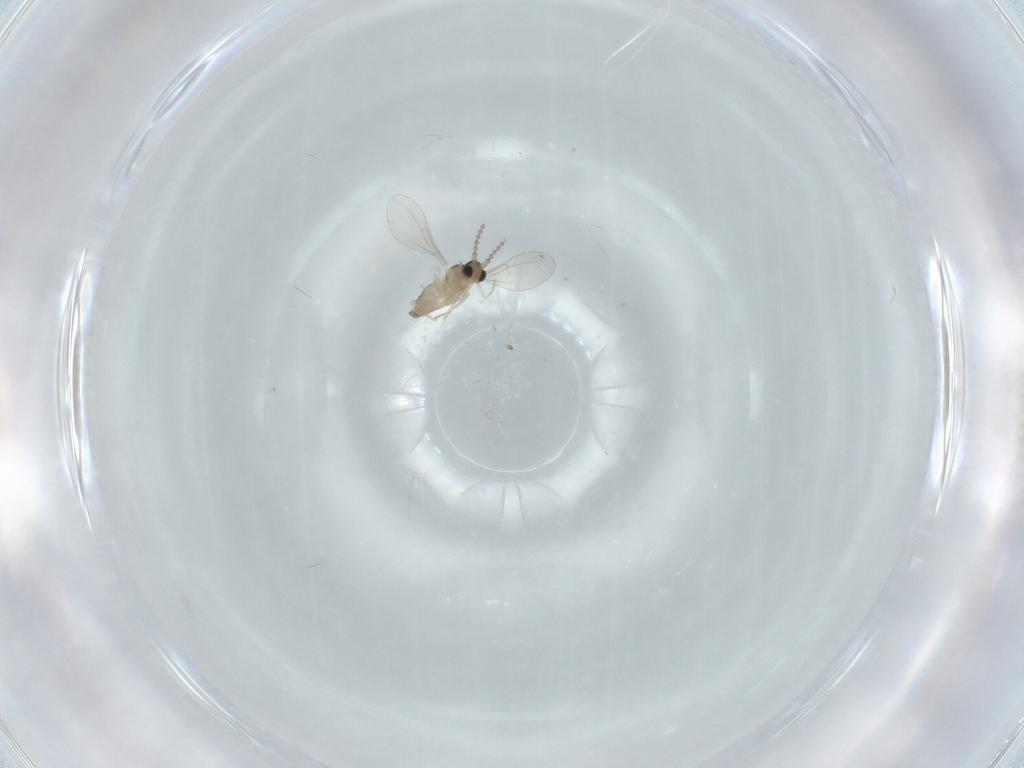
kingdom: Animalia
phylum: Arthropoda
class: Insecta
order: Diptera
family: Cecidomyiidae
